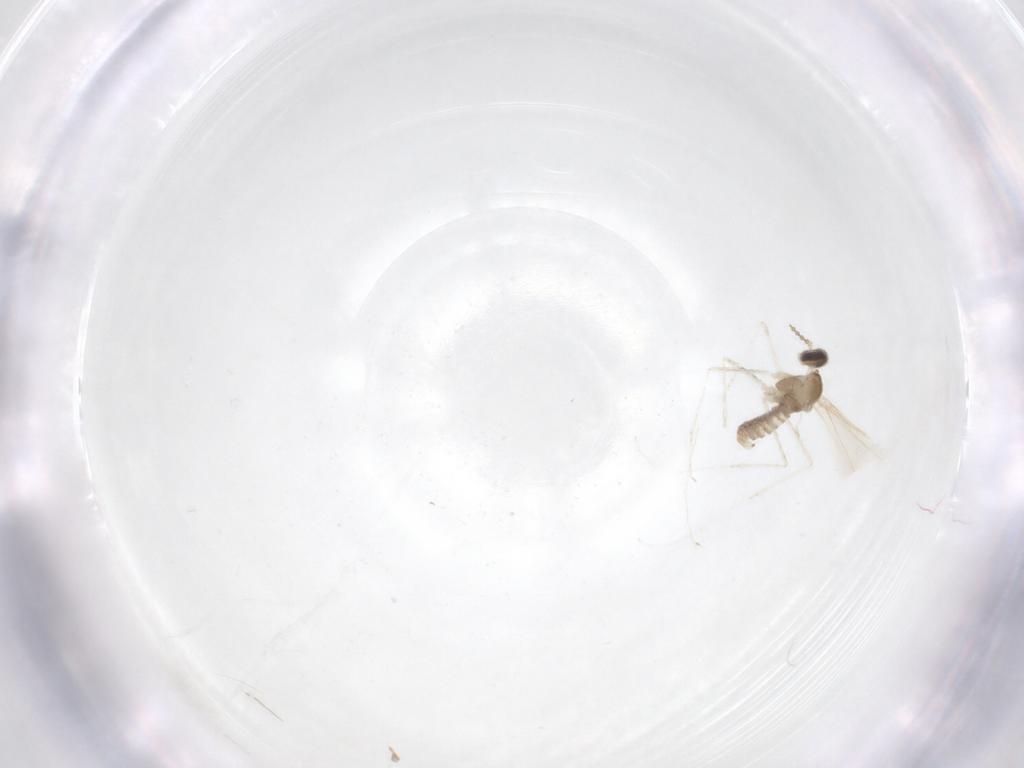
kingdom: Animalia
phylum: Arthropoda
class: Insecta
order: Diptera
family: Cecidomyiidae
